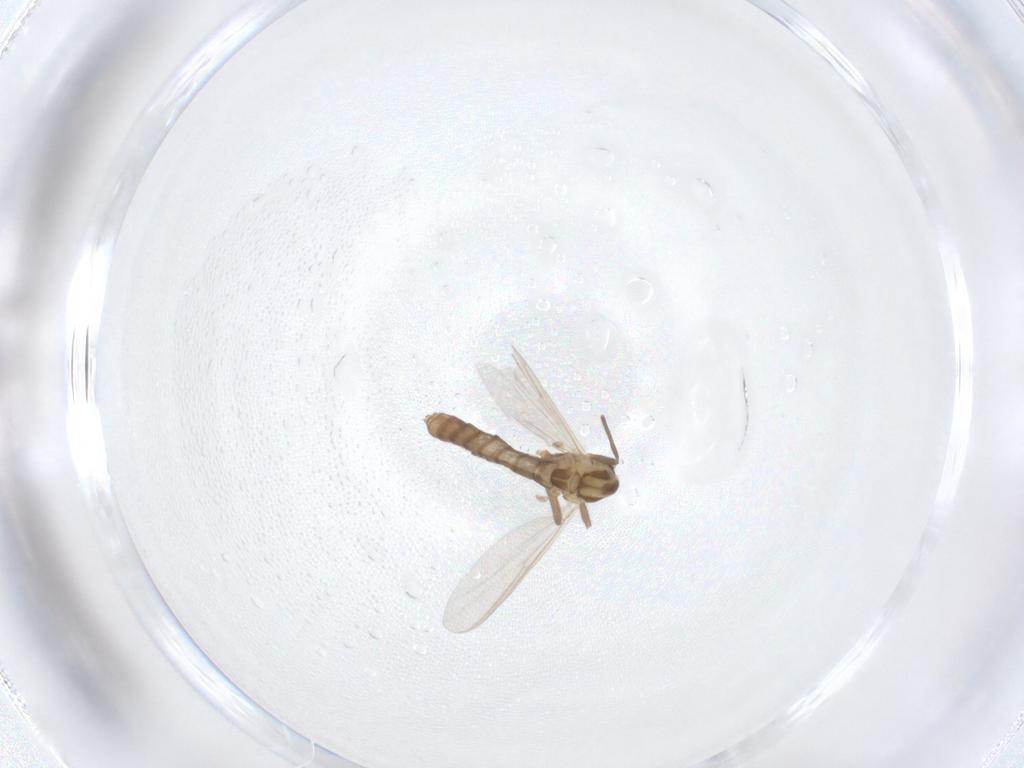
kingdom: Animalia
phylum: Arthropoda
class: Insecta
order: Diptera
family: Chironomidae
